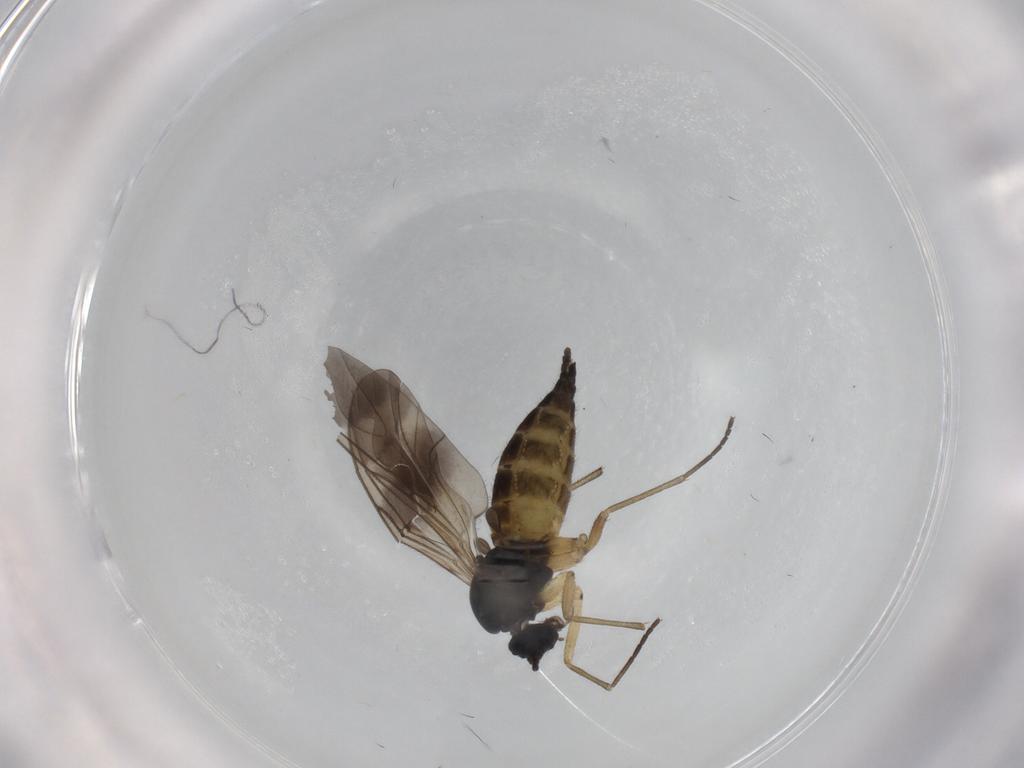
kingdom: Animalia
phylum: Arthropoda
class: Insecta
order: Diptera
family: Sciaridae
